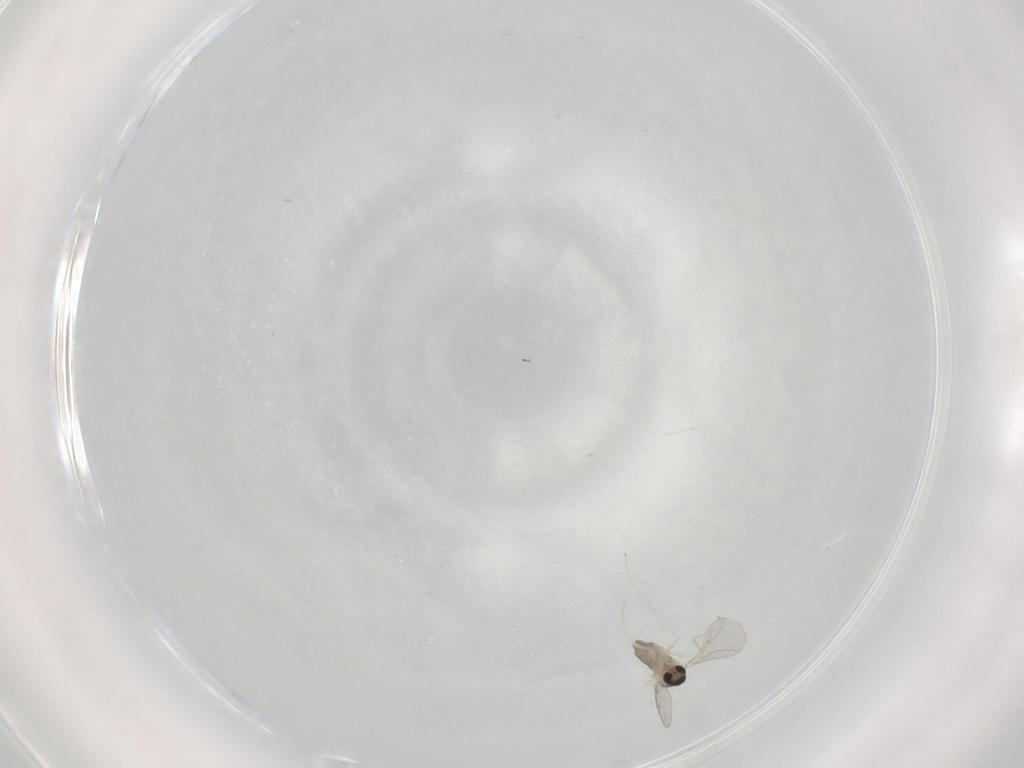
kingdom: Animalia
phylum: Arthropoda
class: Insecta
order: Diptera
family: Cecidomyiidae
